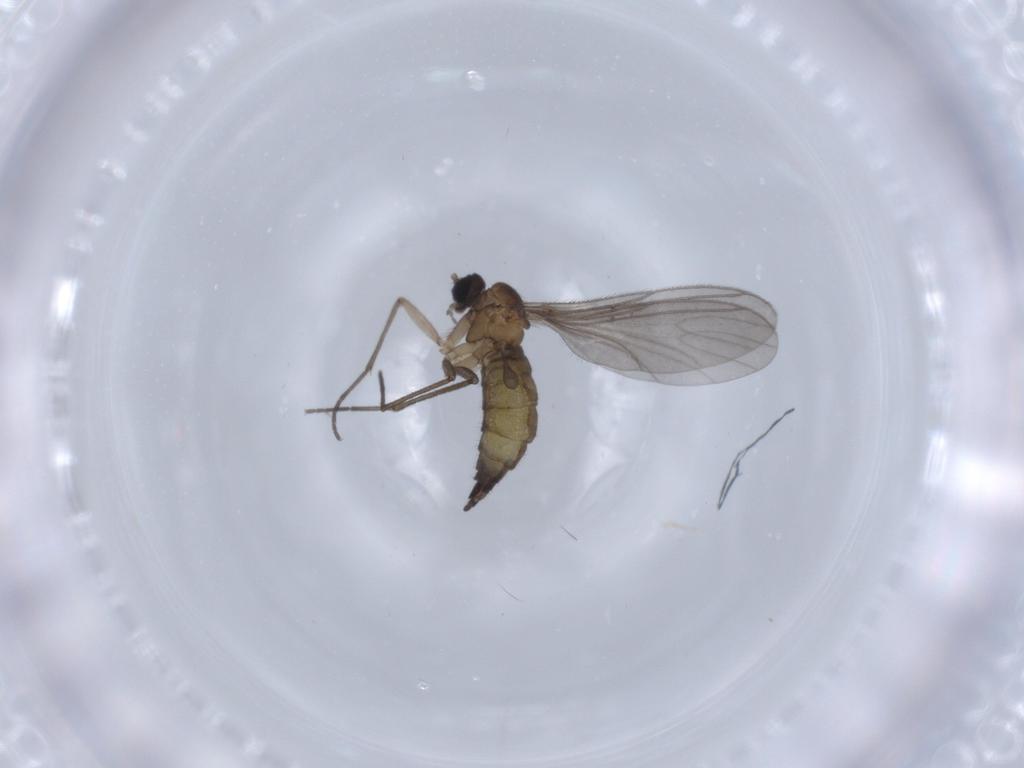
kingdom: Animalia
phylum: Arthropoda
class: Insecta
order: Diptera
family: Sciaridae
